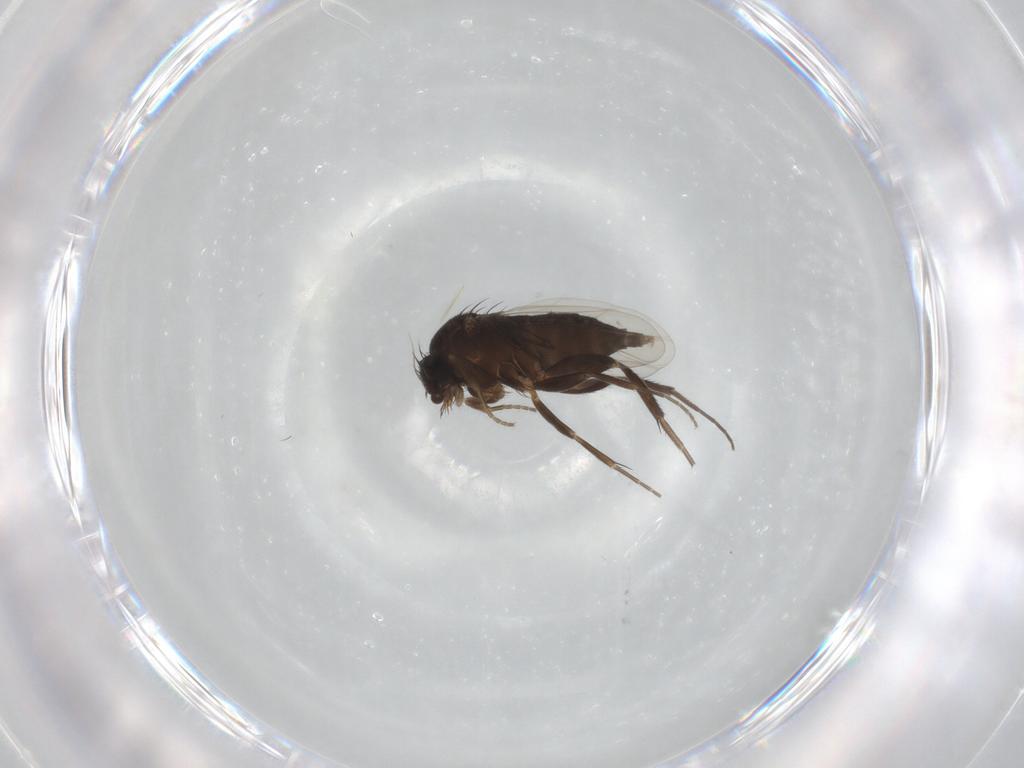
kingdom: Animalia
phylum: Arthropoda
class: Insecta
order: Diptera
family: Phoridae
